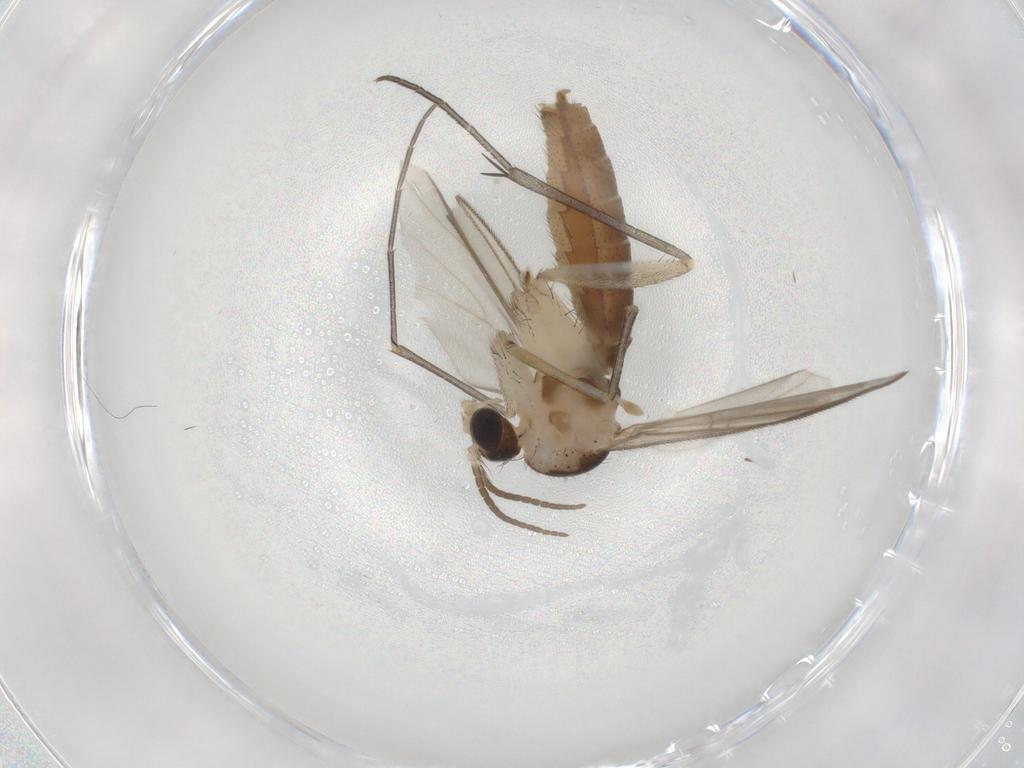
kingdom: Animalia
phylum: Arthropoda
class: Insecta
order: Diptera
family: Mycetophilidae
